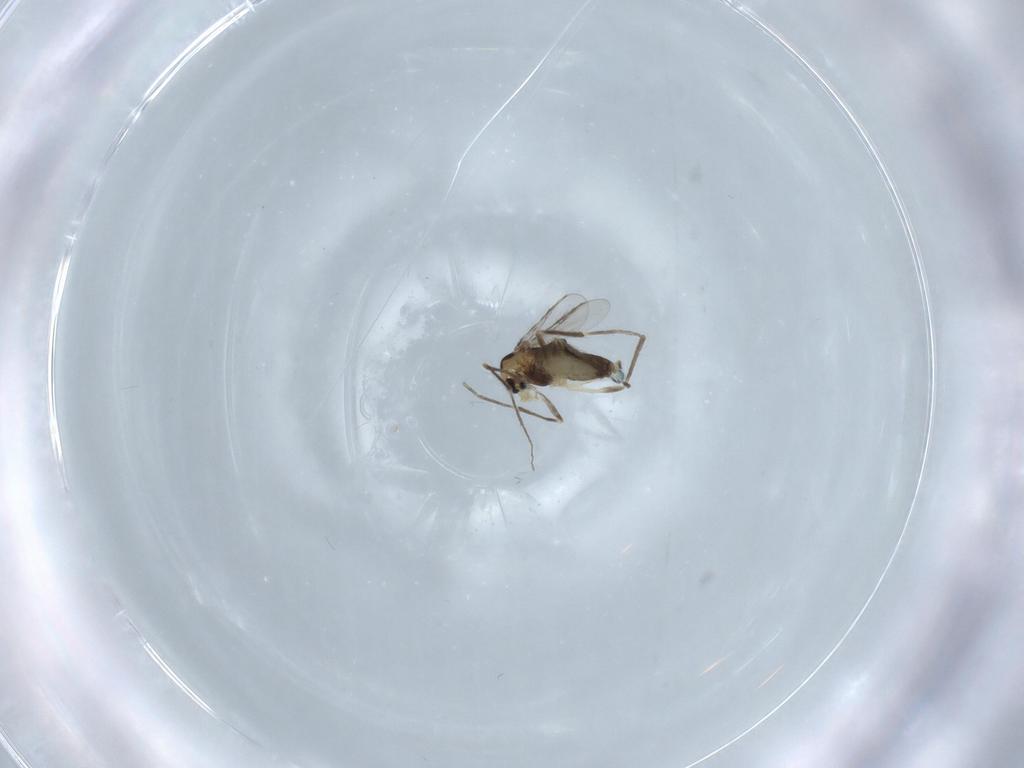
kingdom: Animalia
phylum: Arthropoda
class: Insecta
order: Diptera
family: Chironomidae
